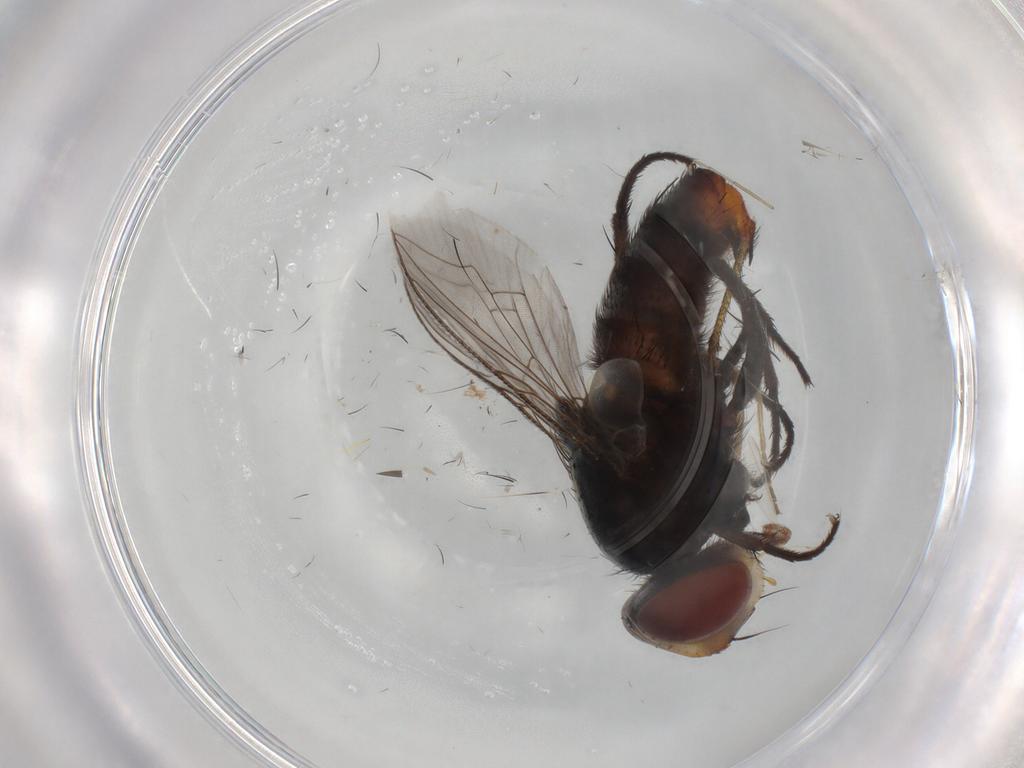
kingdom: Animalia
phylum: Arthropoda
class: Insecta
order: Diptera
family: Sarcophagidae
